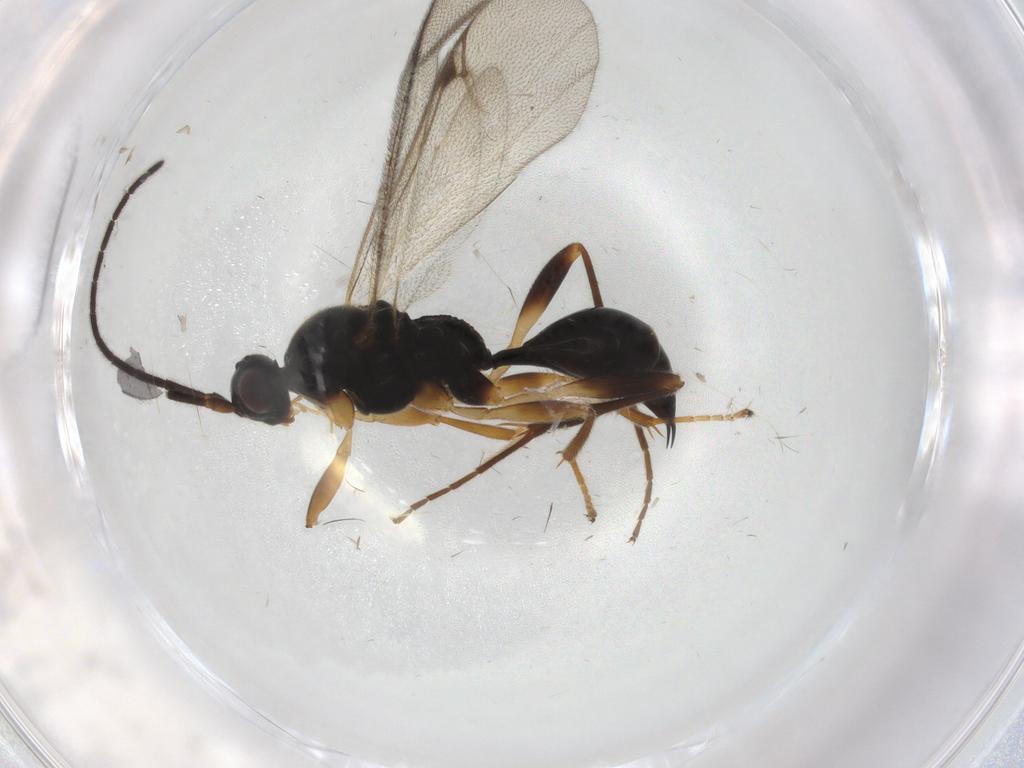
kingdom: Animalia
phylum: Arthropoda
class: Insecta
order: Hymenoptera
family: Proctotrupidae
